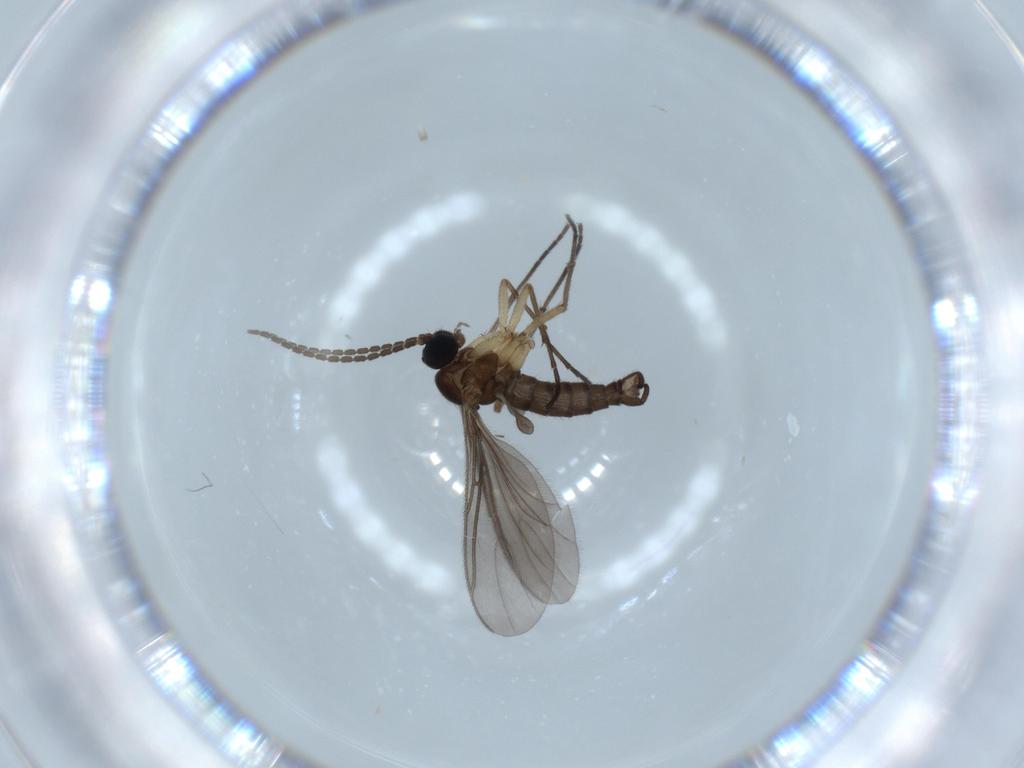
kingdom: Animalia
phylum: Arthropoda
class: Insecta
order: Diptera
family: Sciaridae
